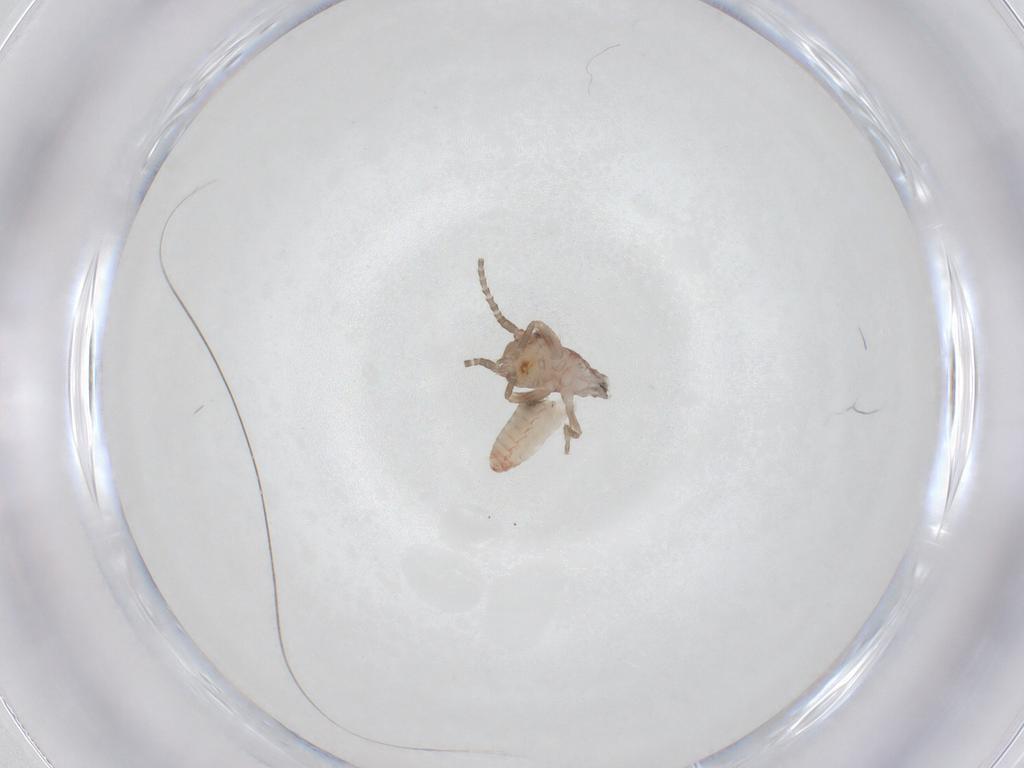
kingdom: Animalia
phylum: Arthropoda
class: Insecta
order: Orthoptera
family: Gryllidae
